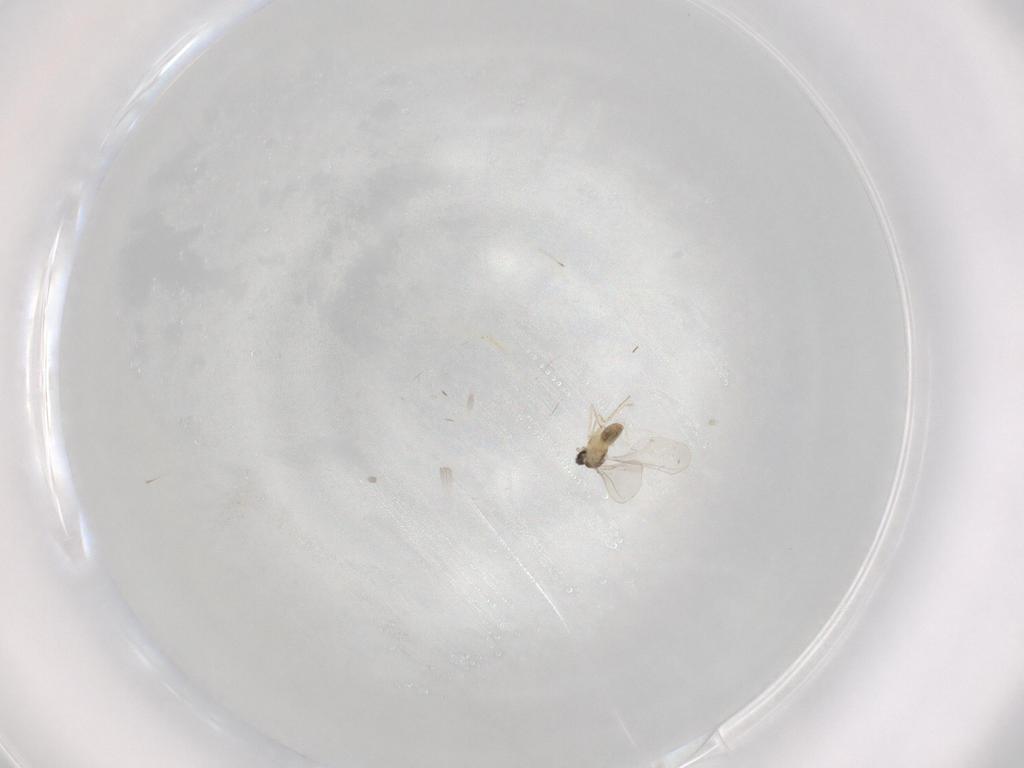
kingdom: Animalia
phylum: Arthropoda
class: Insecta
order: Diptera
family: Cecidomyiidae
